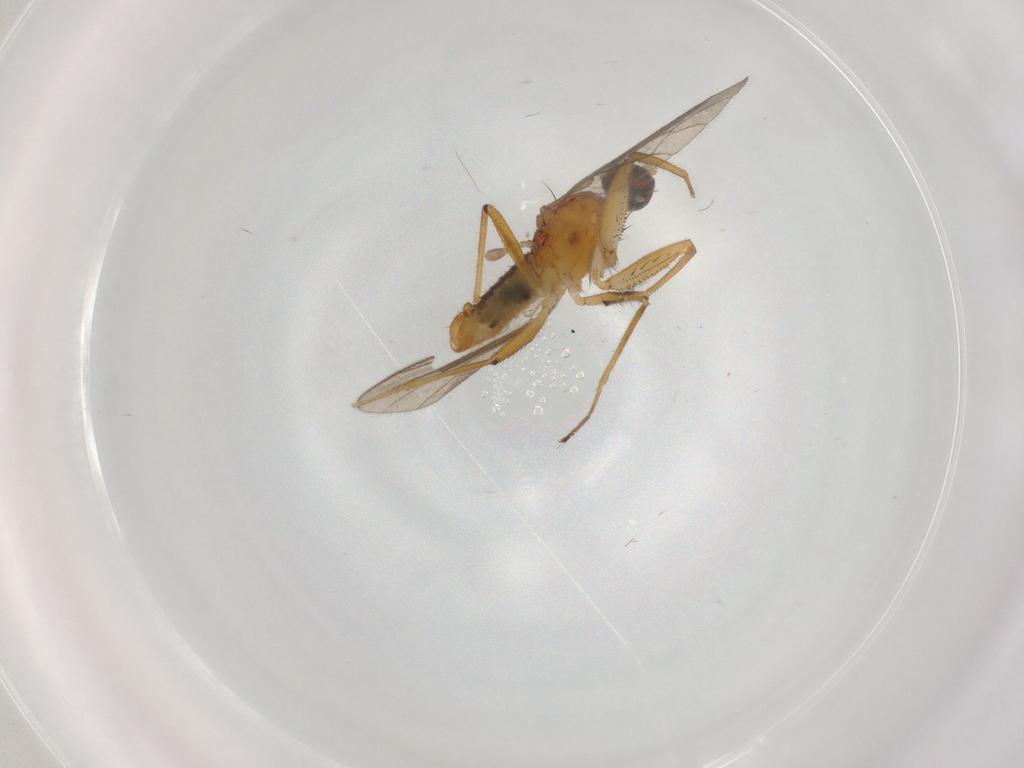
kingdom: Animalia
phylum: Arthropoda
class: Insecta
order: Diptera
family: Empididae
